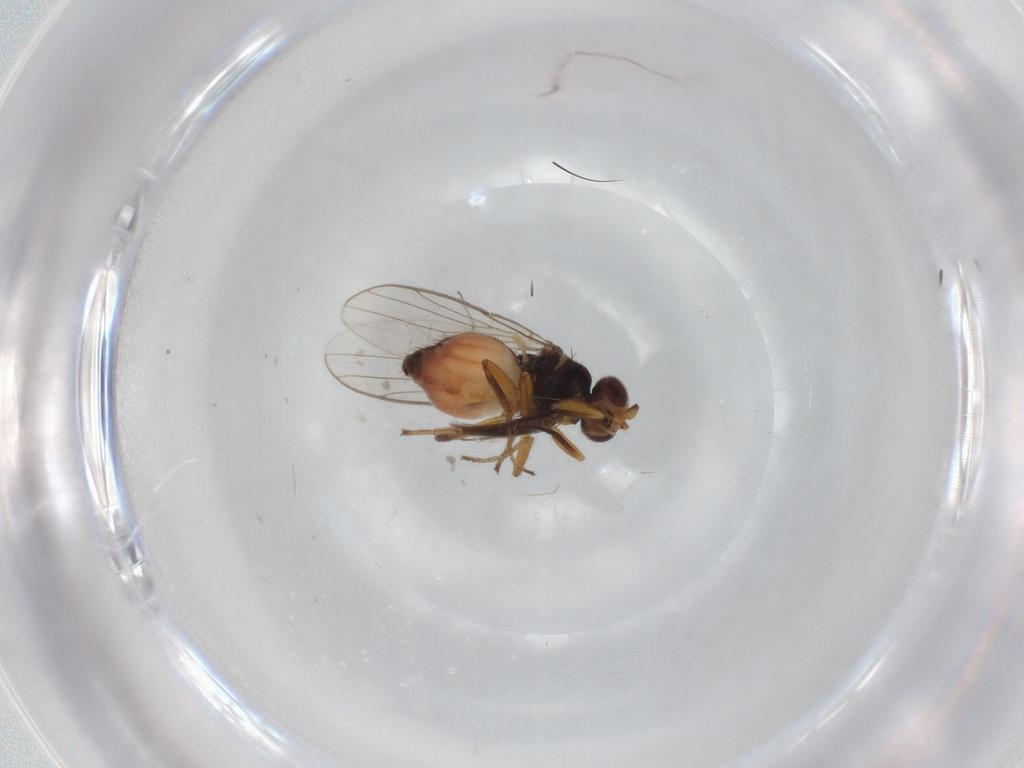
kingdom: Animalia
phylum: Arthropoda
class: Insecta
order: Diptera
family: Chloropidae
